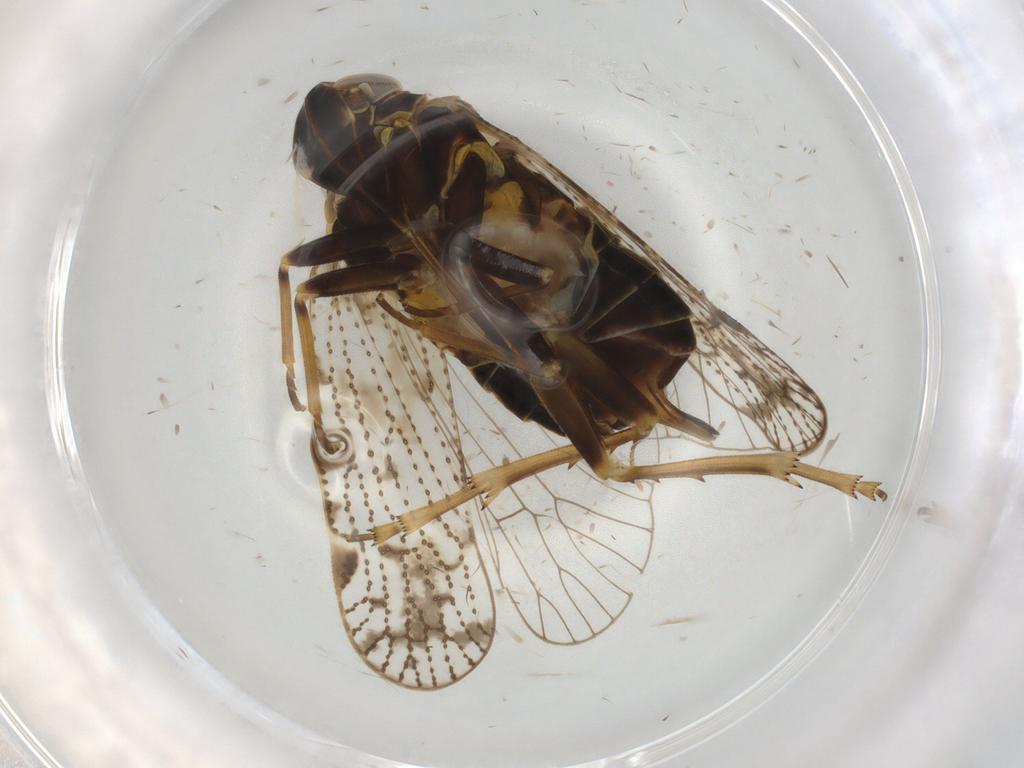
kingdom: Animalia
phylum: Arthropoda
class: Insecta
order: Hemiptera
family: Cixiidae
